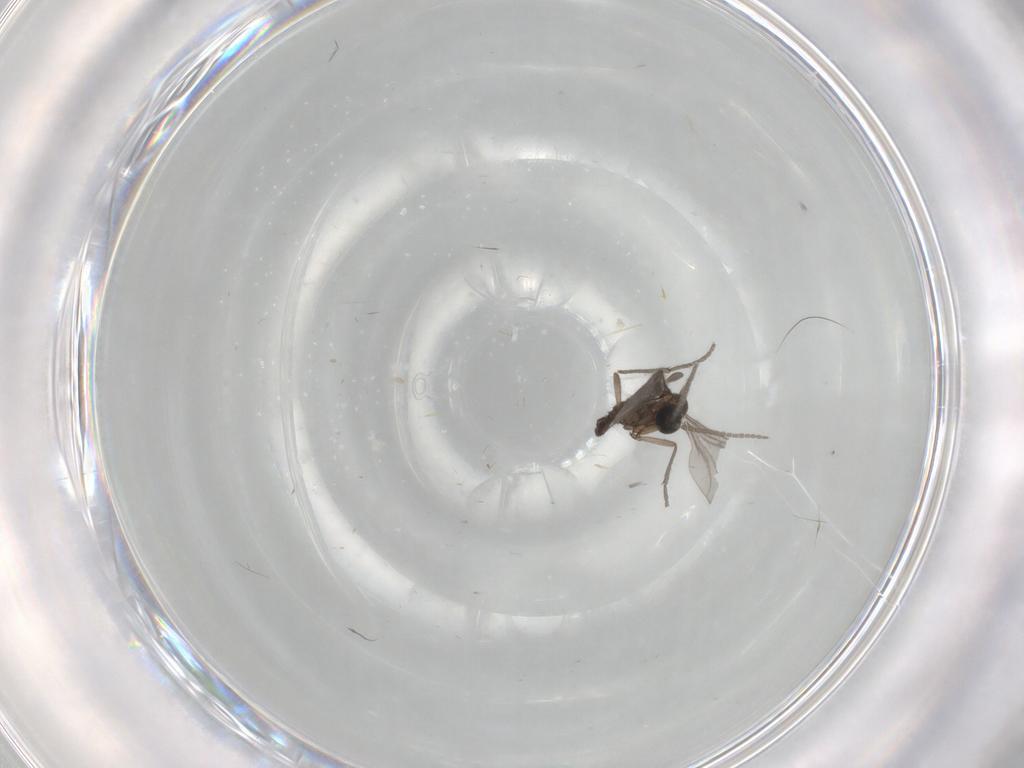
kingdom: Animalia
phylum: Arthropoda
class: Insecta
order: Diptera
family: Sciaridae
